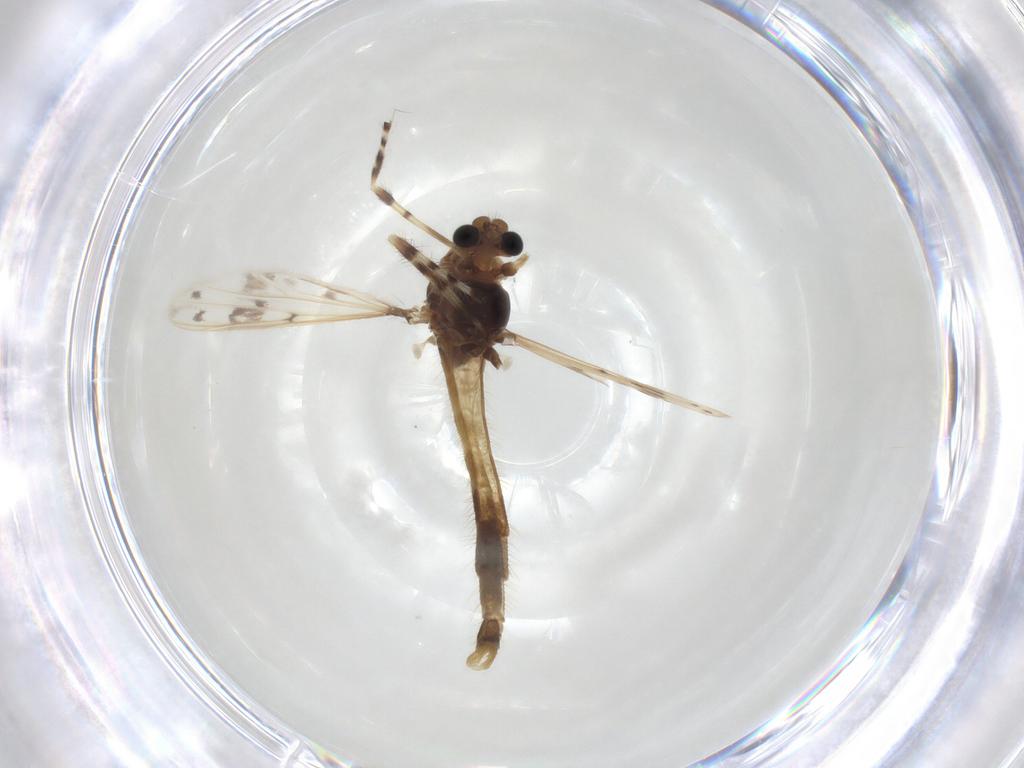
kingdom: Animalia
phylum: Arthropoda
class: Insecta
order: Diptera
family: Chironomidae
